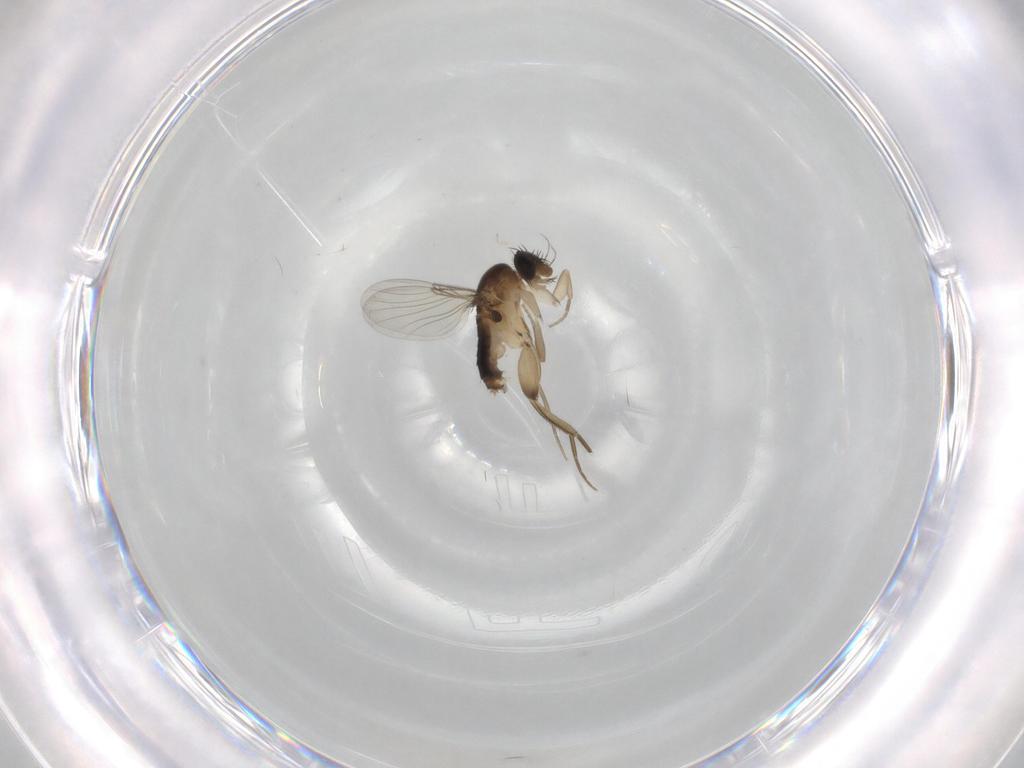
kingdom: Animalia
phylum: Arthropoda
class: Insecta
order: Diptera
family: Phoridae
